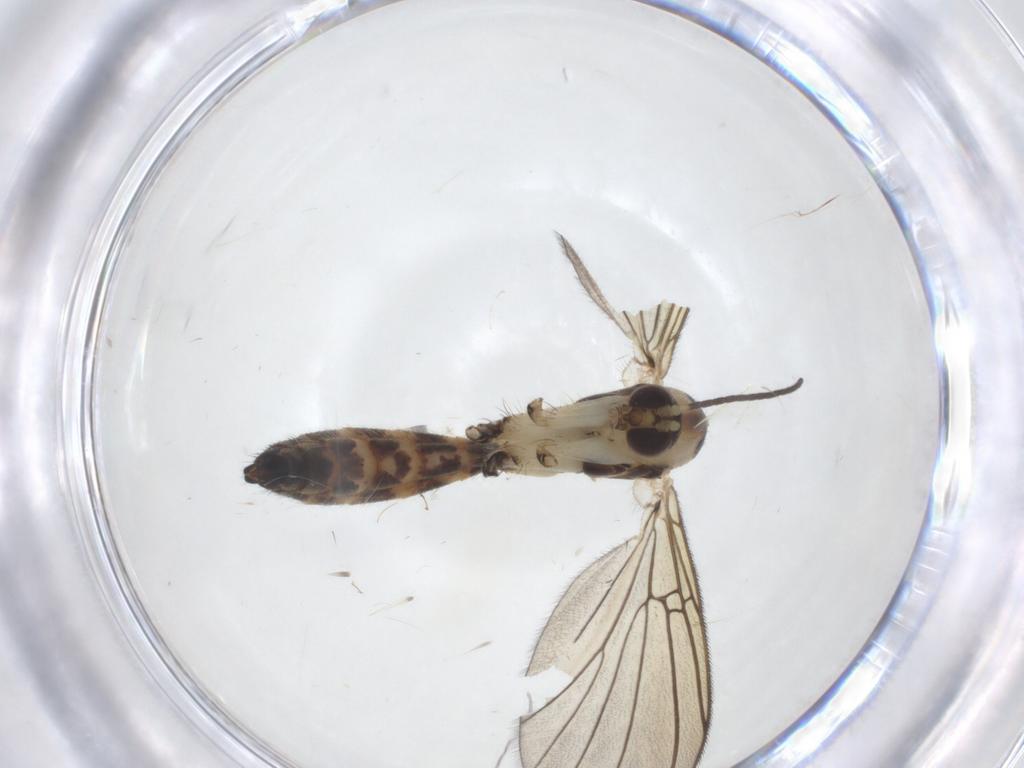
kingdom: Animalia
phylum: Arthropoda
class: Insecta
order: Diptera
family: Mycetophilidae
